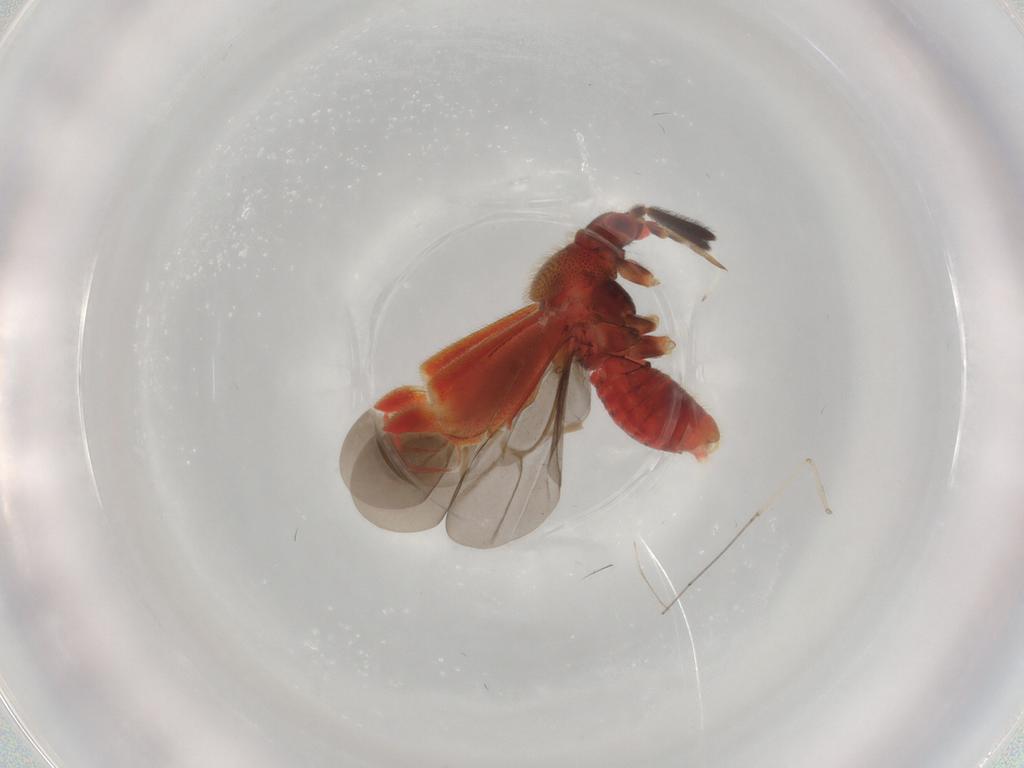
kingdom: Animalia
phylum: Arthropoda
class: Insecta
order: Hemiptera
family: Miridae
